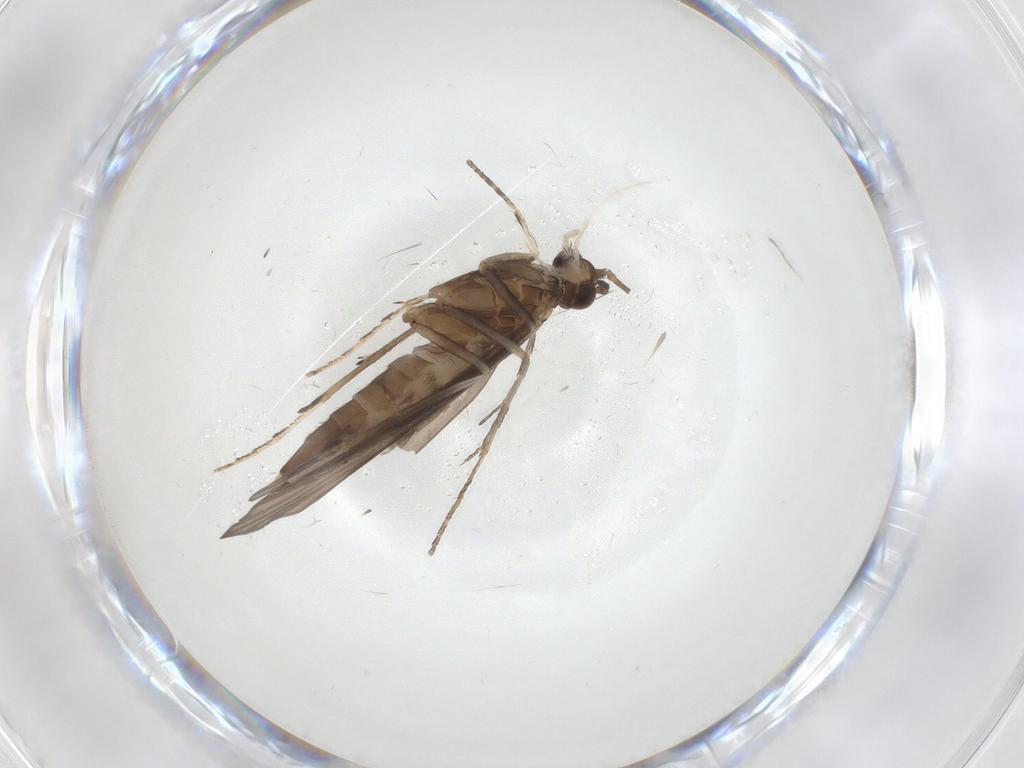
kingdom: Animalia
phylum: Arthropoda
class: Insecta
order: Trichoptera
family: Xiphocentronidae
